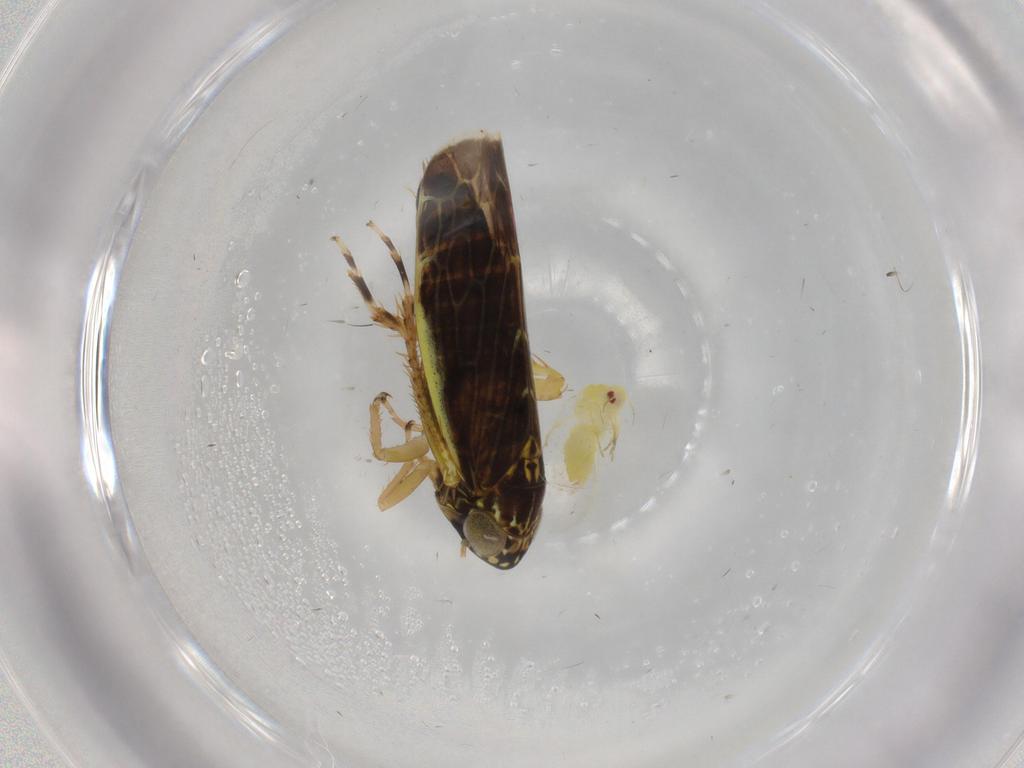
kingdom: Animalia
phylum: Arthropoda
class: Insecta
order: Hemiptera
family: Cicadellidae
